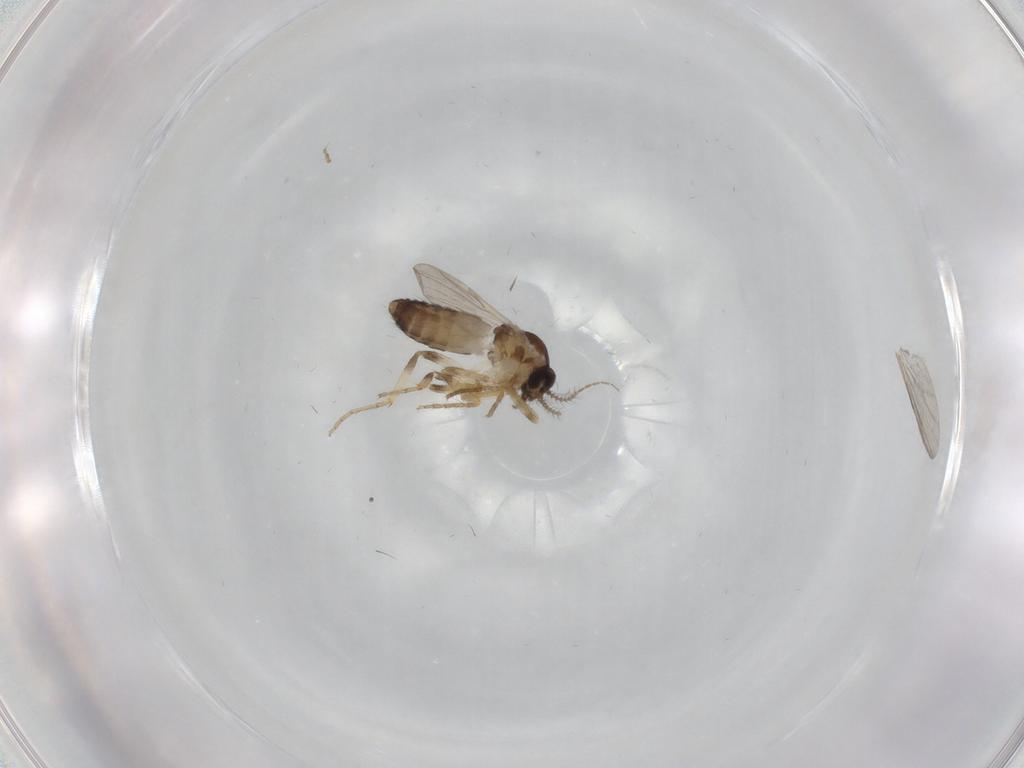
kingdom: Animalia
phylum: Arthropoda
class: Insecta
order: Diptera
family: Ceratopogonidae
